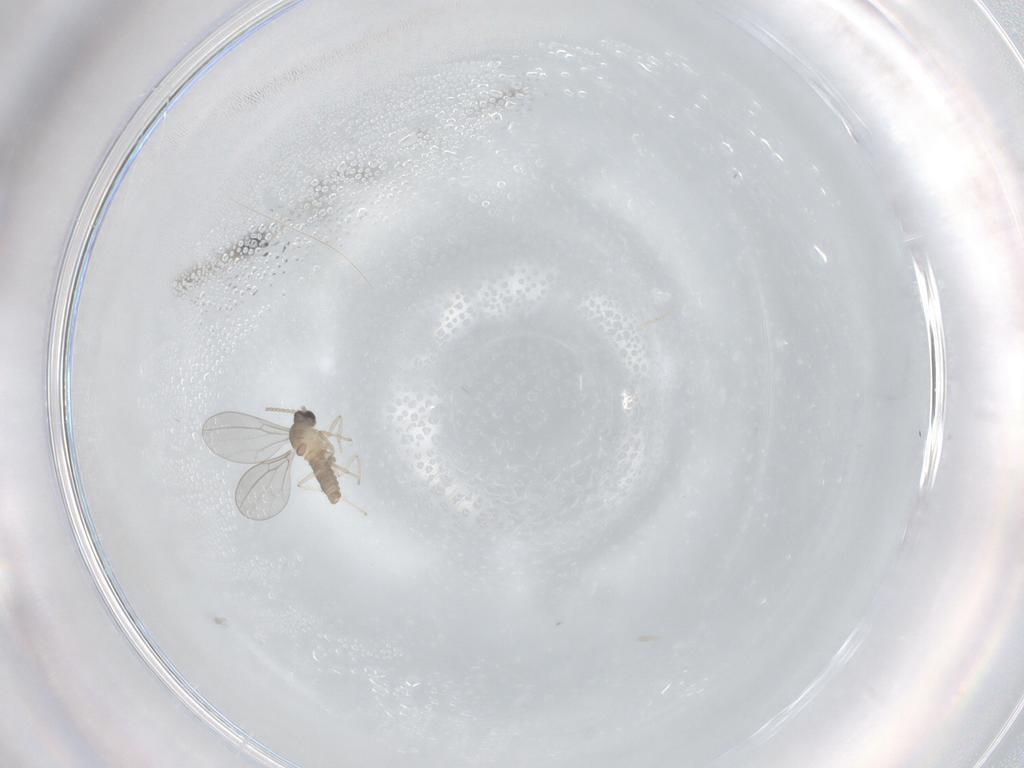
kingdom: Animalia
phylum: Arthropoda
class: Insecta
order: Diptera
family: Cecidomyiidae
